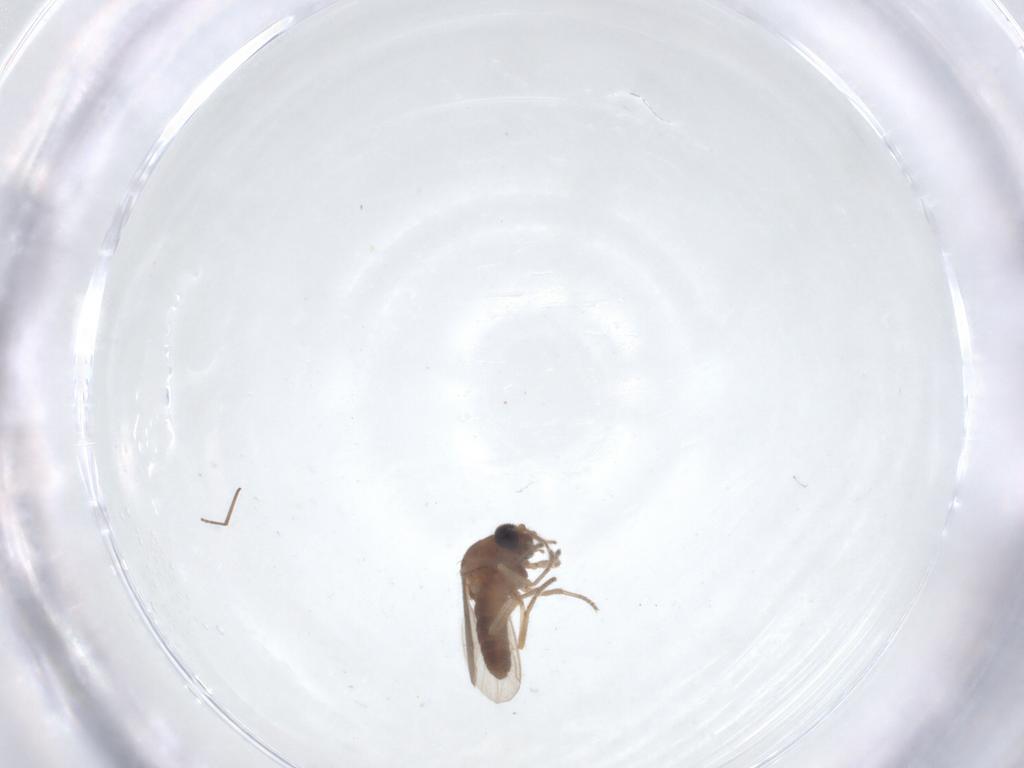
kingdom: Animalia
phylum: Arthropoda
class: Insecta
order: Diptera
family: Ceratopogonidae
